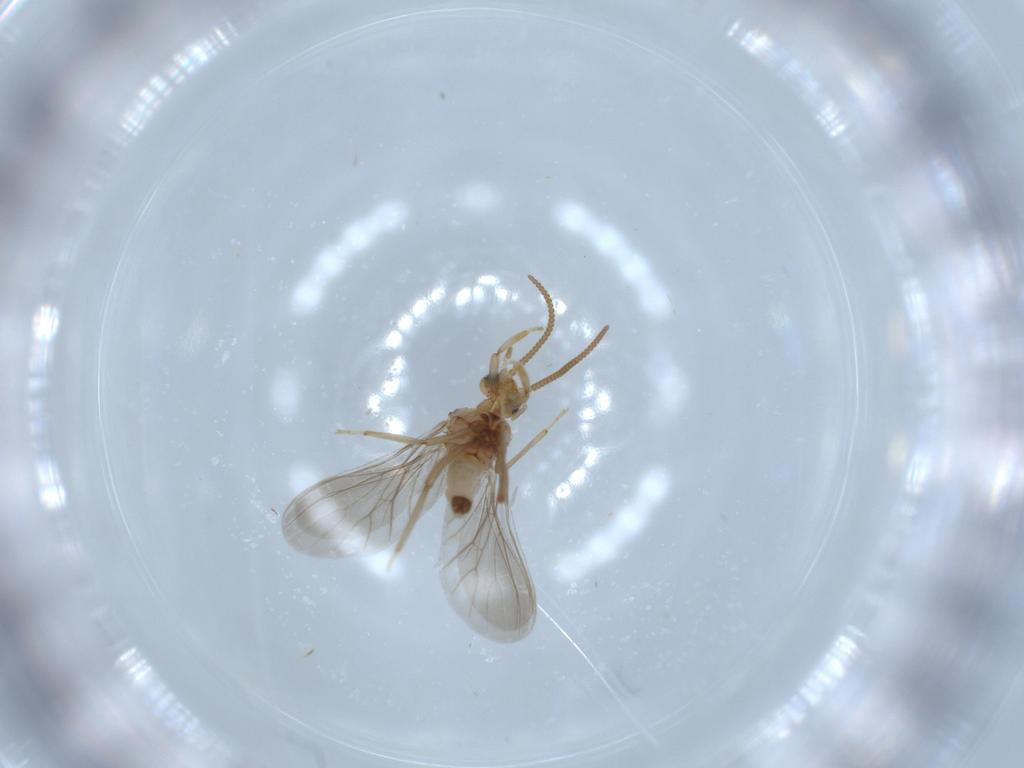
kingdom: Animalia
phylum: Arthropoda
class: Insecta
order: Neuroptera
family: Coniopterygidae
